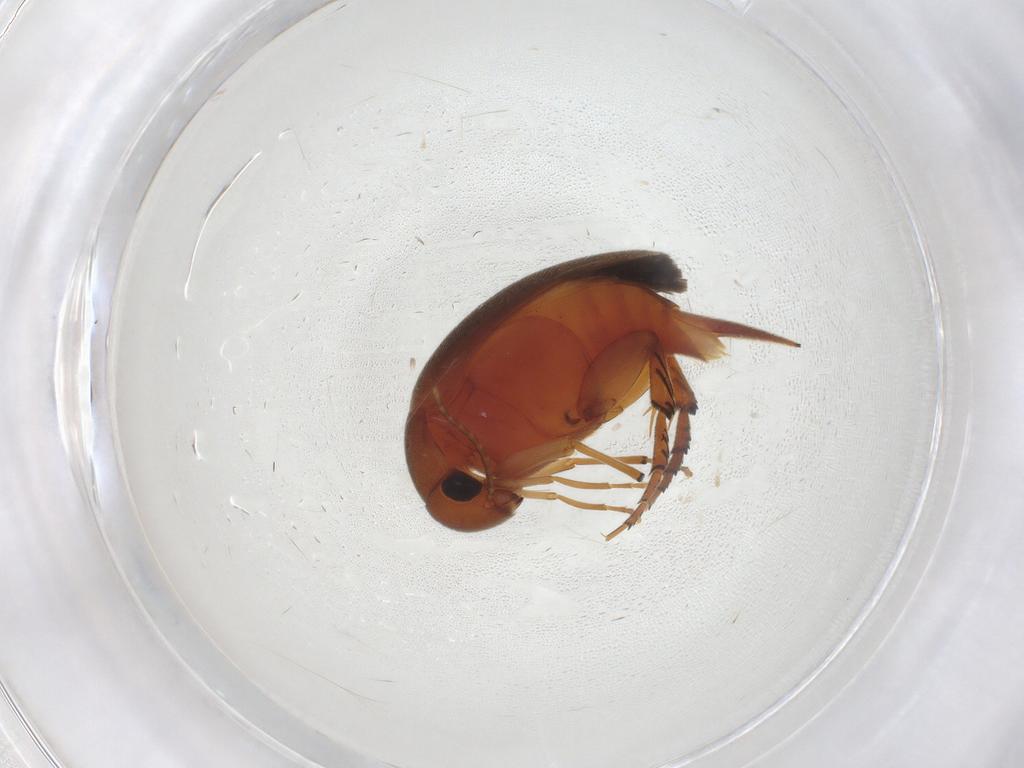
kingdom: Animalia
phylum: Arthropoda
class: Insecta
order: Coleoptera
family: Mordellidae
